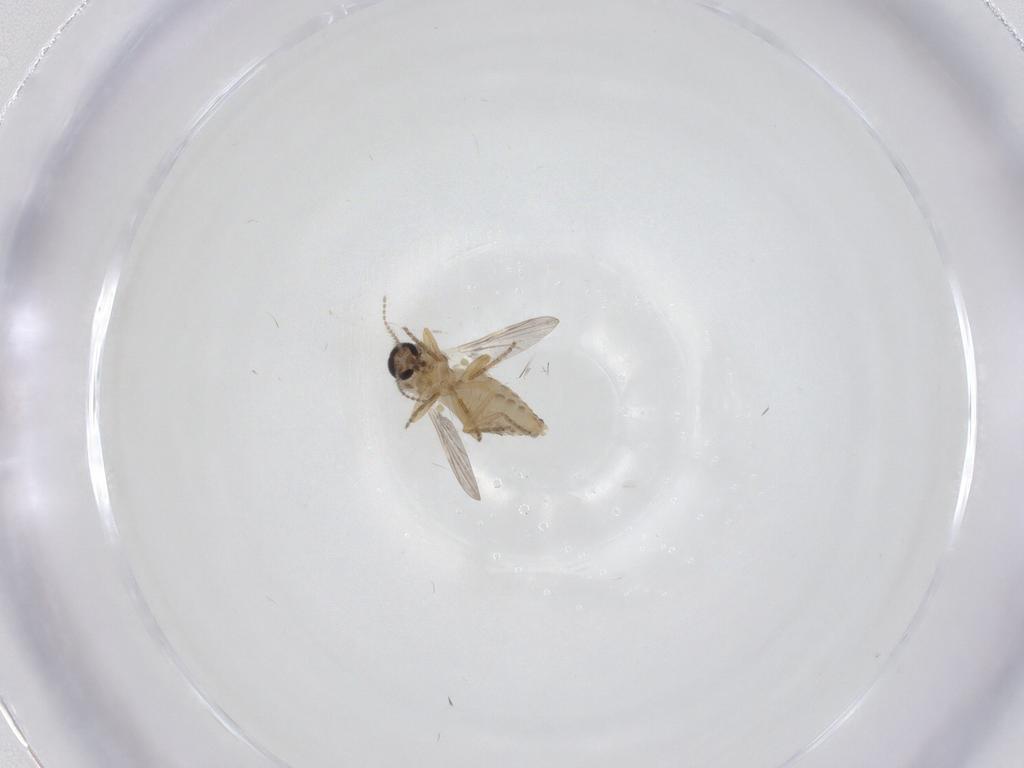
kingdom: Animalia
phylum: Arthropoda
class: Insecta
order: Diptera
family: Ceratopogonidae
